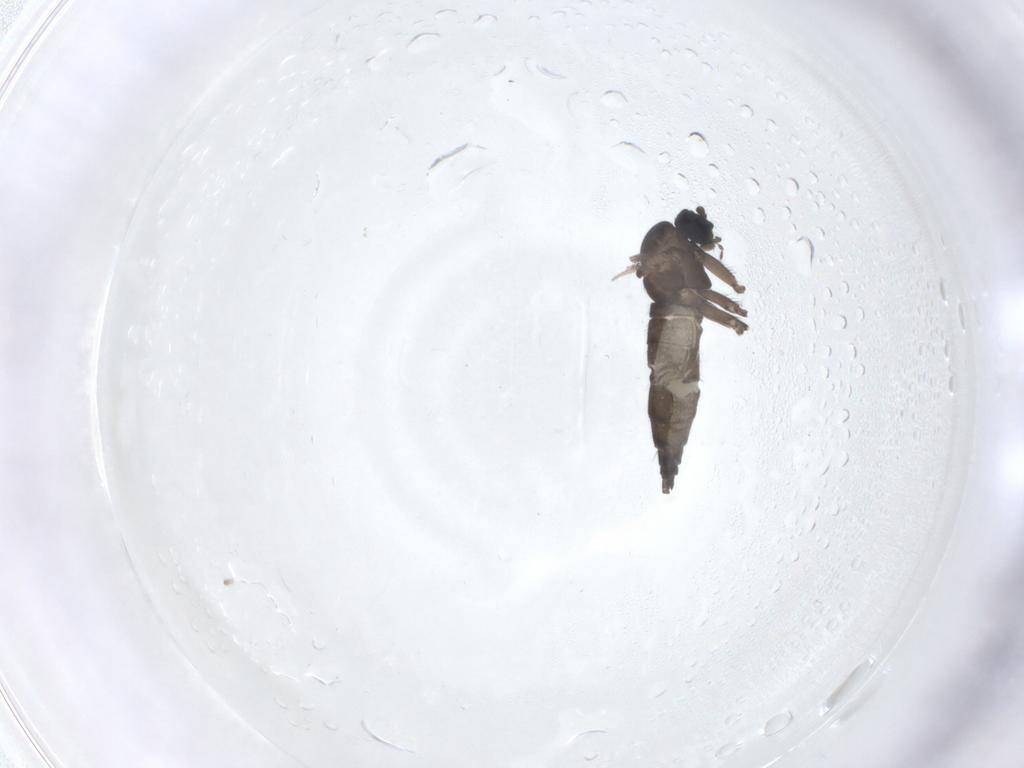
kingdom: Animalia
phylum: Arthropoda
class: Insecta
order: Diptera
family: Sciaridae
